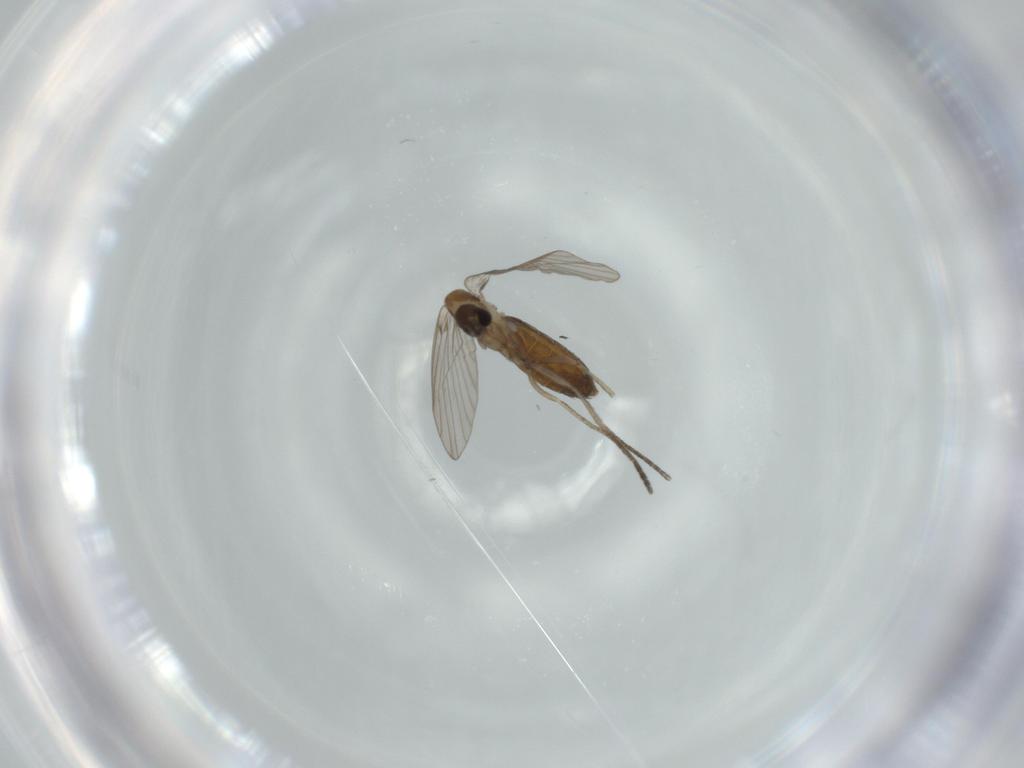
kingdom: Animalia
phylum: Arthropoda
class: Insecta
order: Diptera
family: Psychodidae
